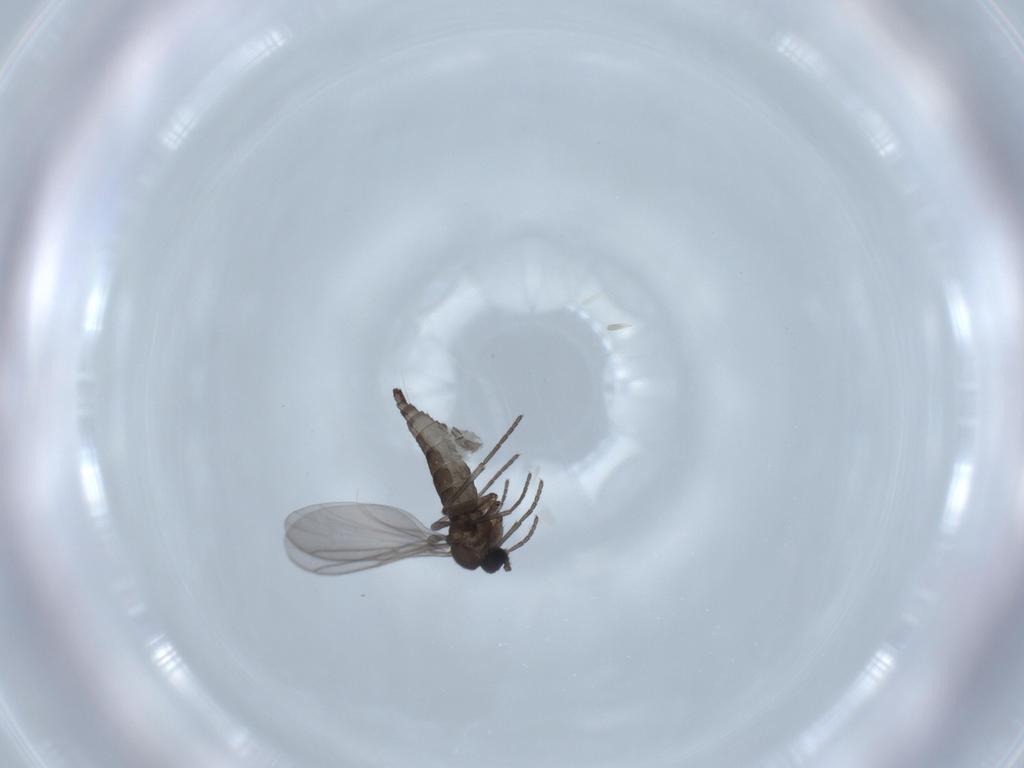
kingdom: Animalia
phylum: Arthropoda
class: Insecta
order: Diptera
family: Chironomidae
